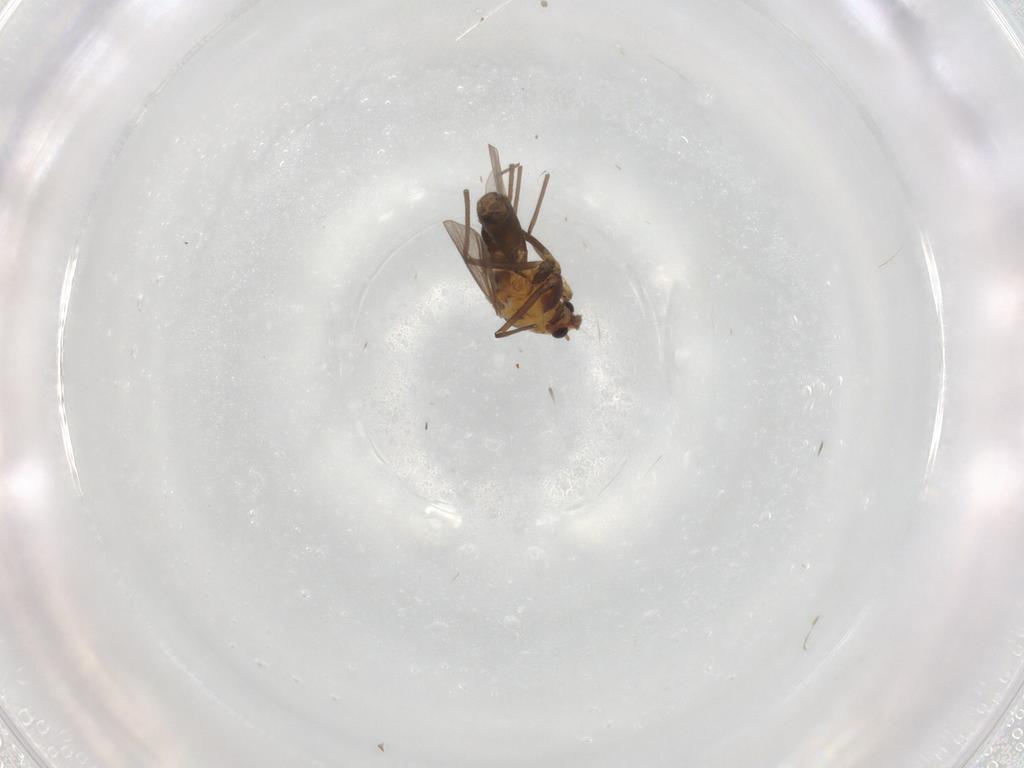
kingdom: Animalia
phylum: Arthropoda
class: Insecta
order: Diptera
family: Chironomidae
